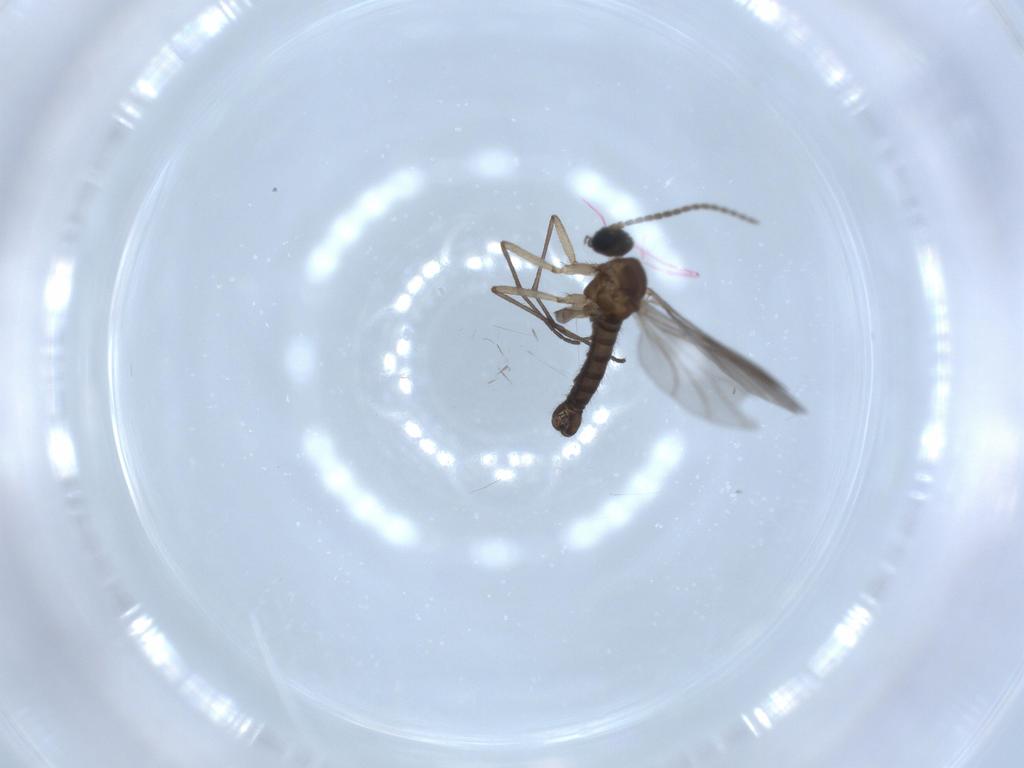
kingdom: Animalia
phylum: Arthropoda
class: Insecta
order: Diptera
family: Sciaridae
